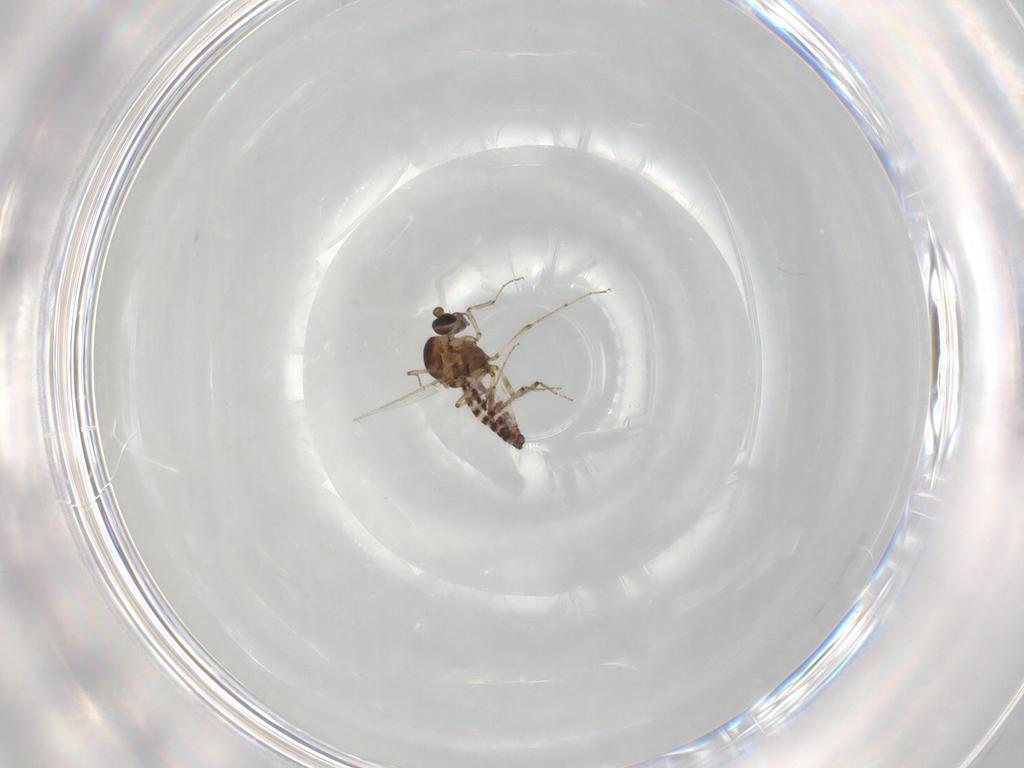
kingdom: Animalia
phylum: Arthropoda
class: Insecta
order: Diptera
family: Ceratopogonidae
